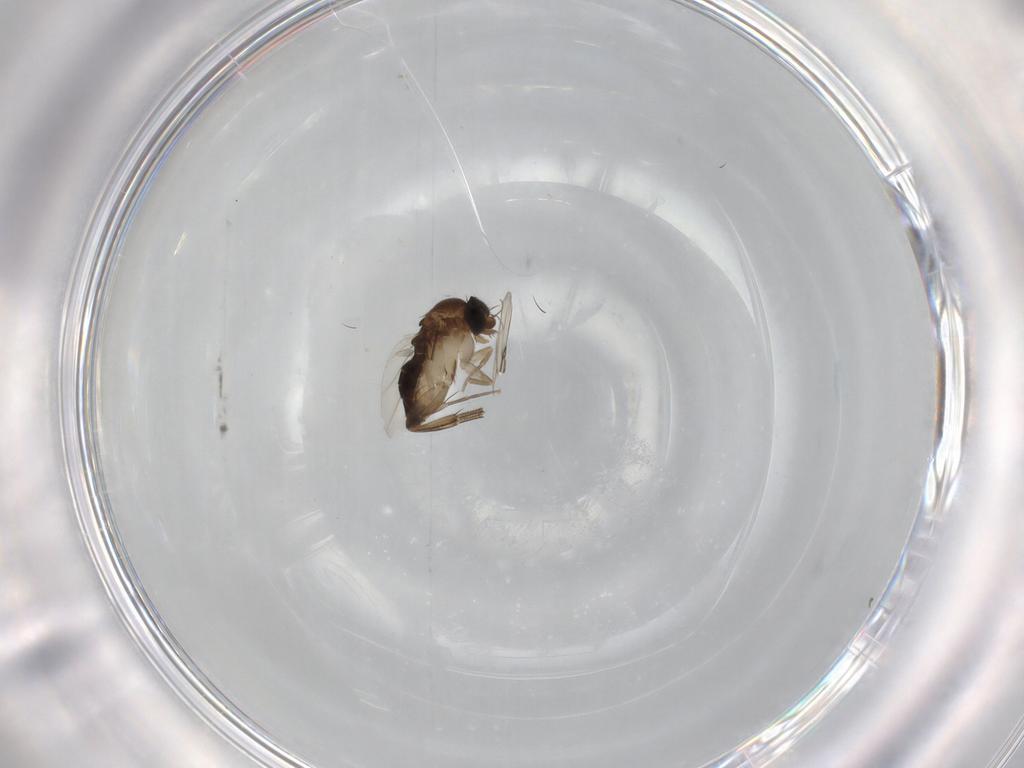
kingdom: Animalia
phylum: Arthropoda
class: Insecta
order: Diptera
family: Phoridae
